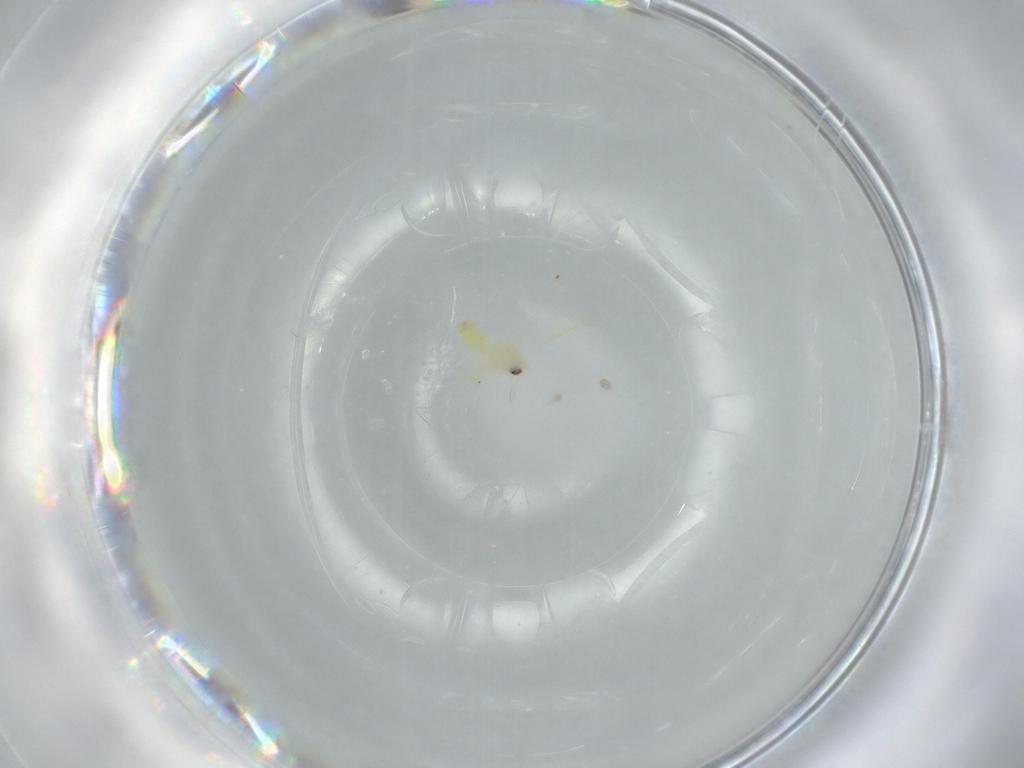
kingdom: Animalia
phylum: Arthropoda
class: Insecta
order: Hemiptera
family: Aleyrodidae
